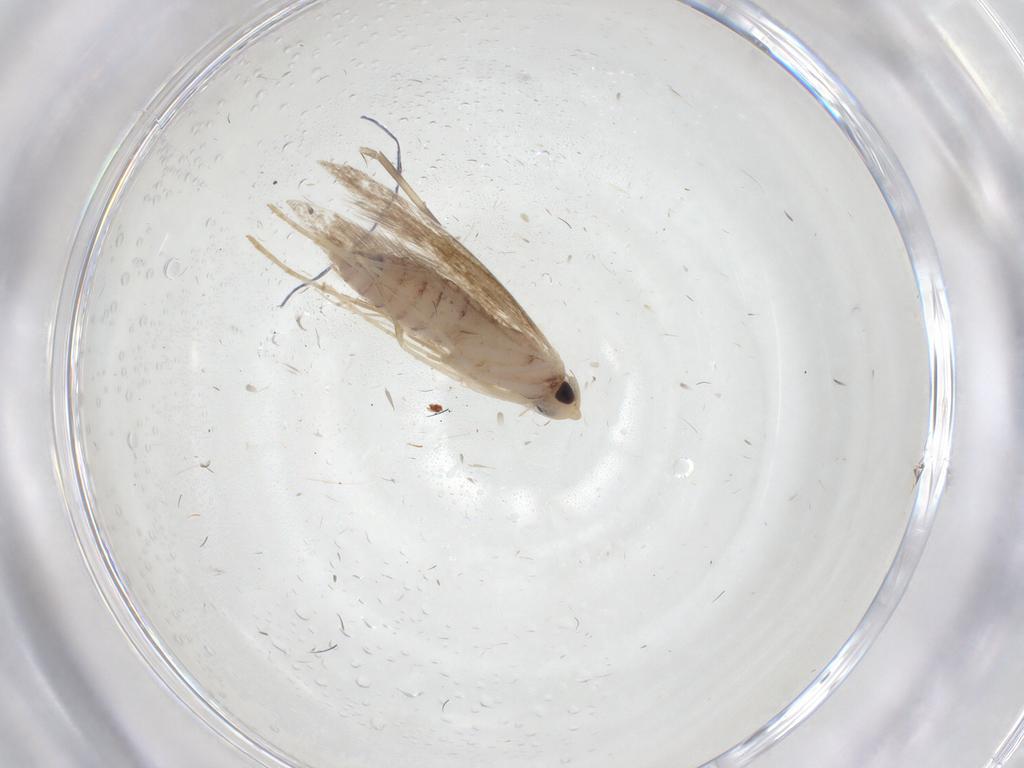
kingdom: Animalia
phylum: Arthropoda
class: Insecta
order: Lepidoptera
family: Lyonetiidae
